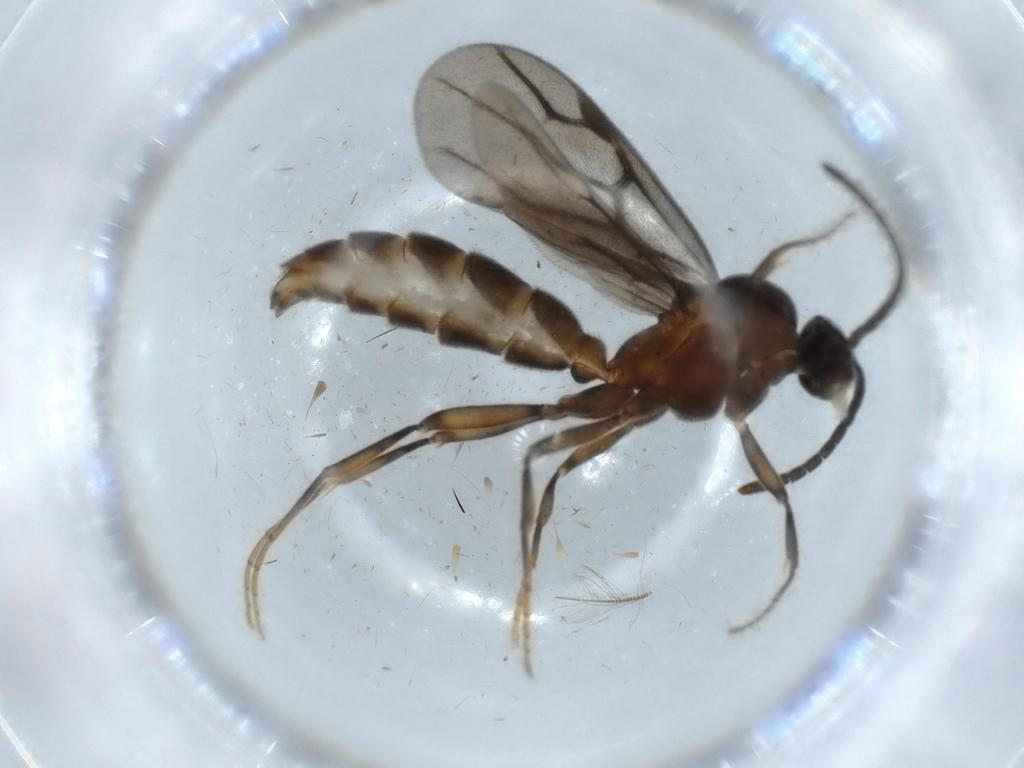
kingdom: Animalia
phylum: Arthropoda
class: Insecta
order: Hymenoptera
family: Formicidae
